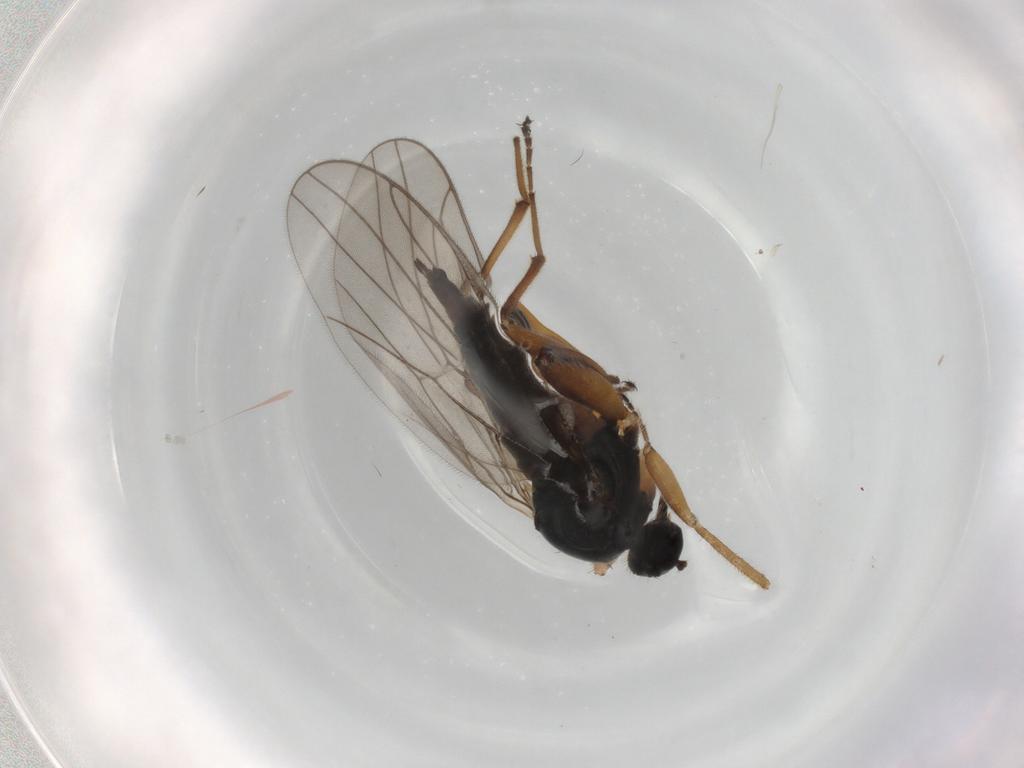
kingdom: Animalia
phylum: Arthropoda
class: Insecta
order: Diptera
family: Hybotidae
